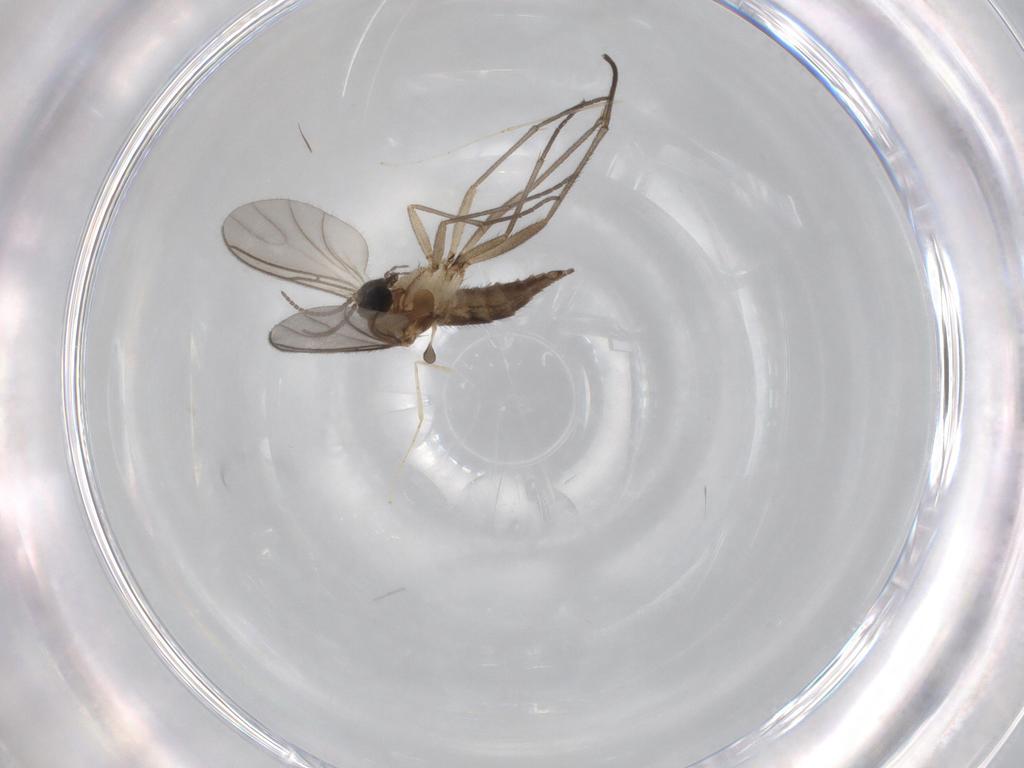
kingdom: Animalia
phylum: Arthropoda
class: Insecta
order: Diptera
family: Sciaridae
